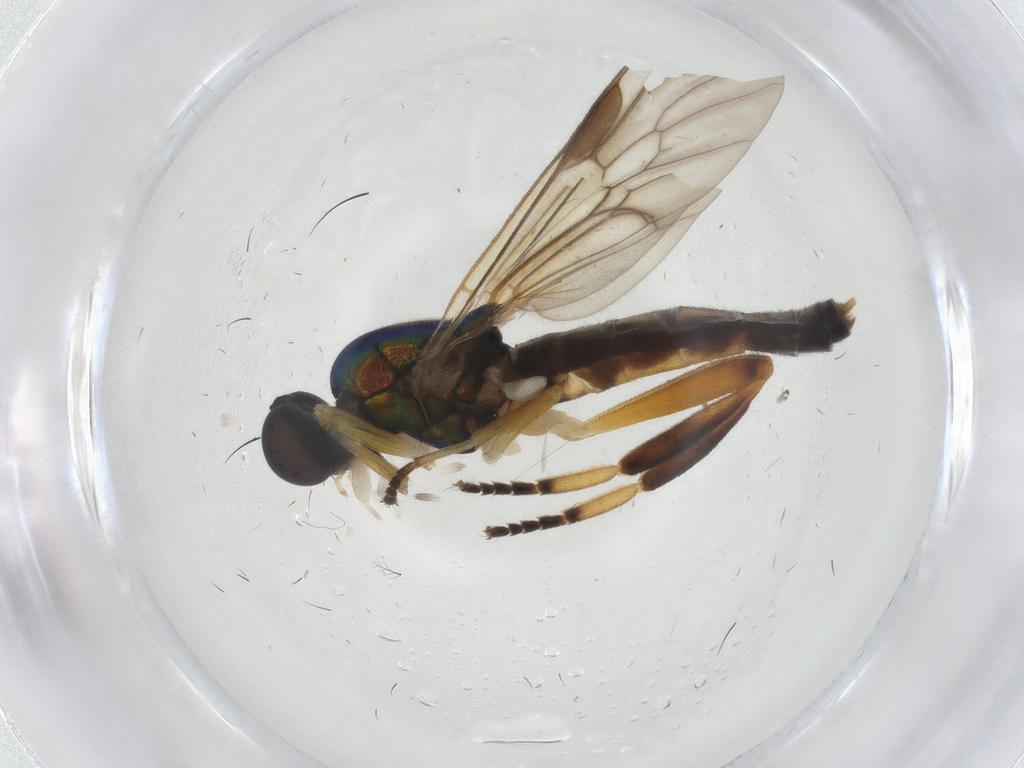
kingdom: Animalia
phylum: Arthropoda
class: Insecta
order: Diptera
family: Stratiomyidae
